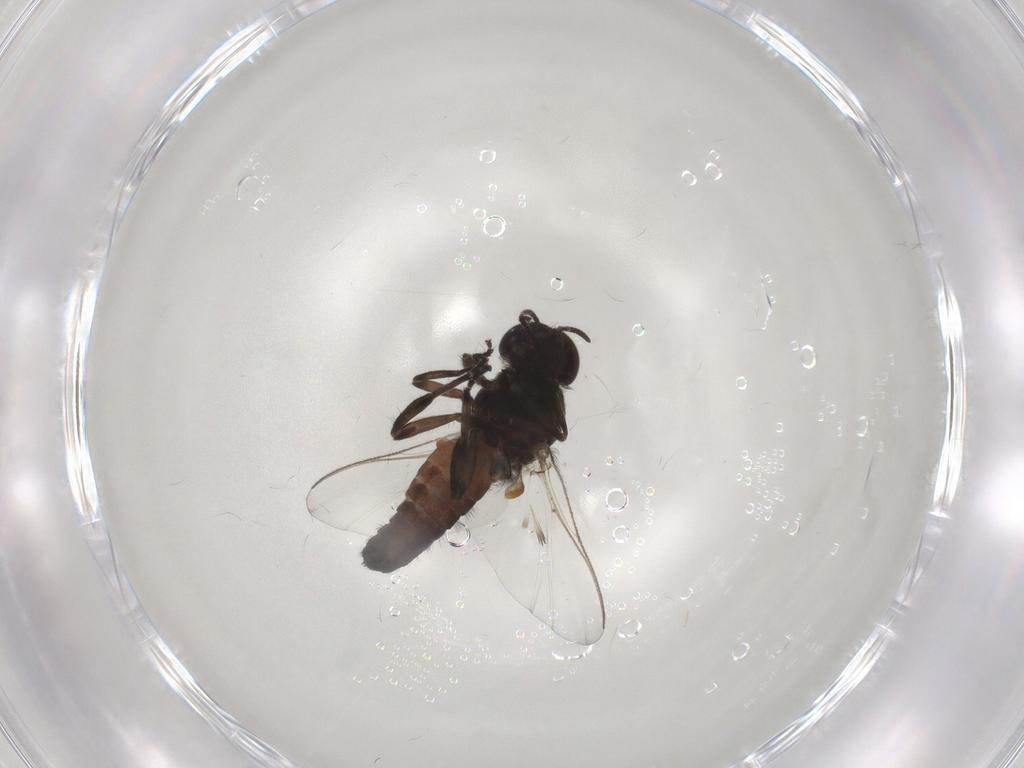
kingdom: Animalia
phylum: Arthropoda
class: Insecta
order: Diptera
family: Simuliidae
